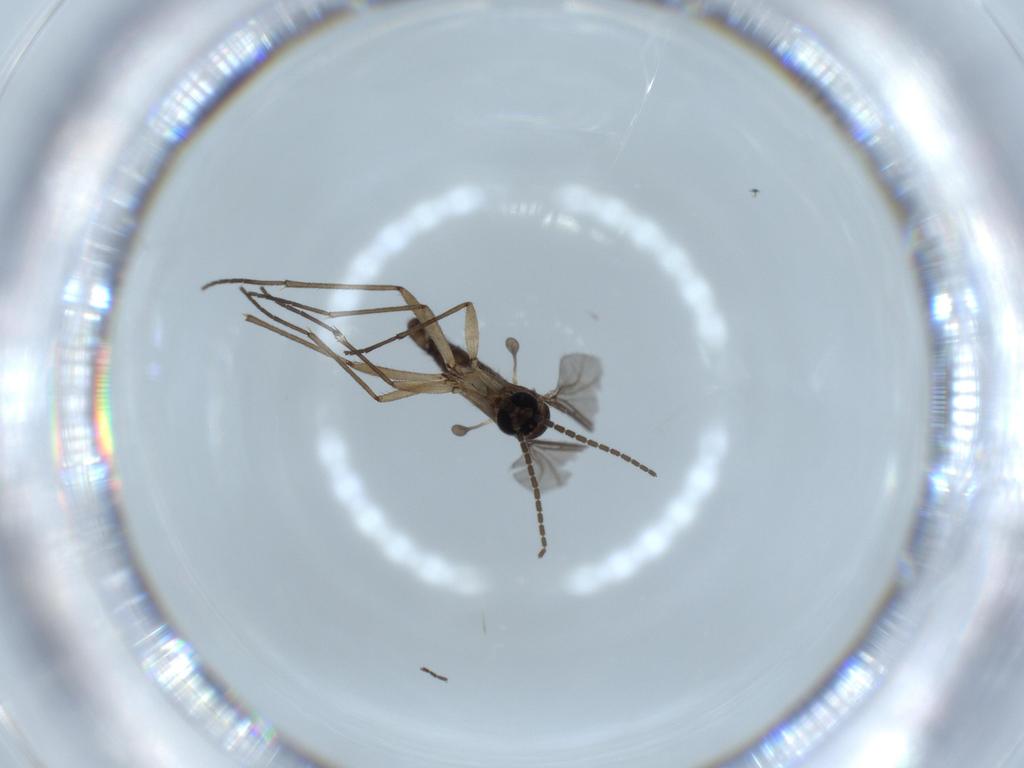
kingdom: Animalia
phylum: Arthropoda
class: Insecta
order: Diptera
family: Sciaridae
